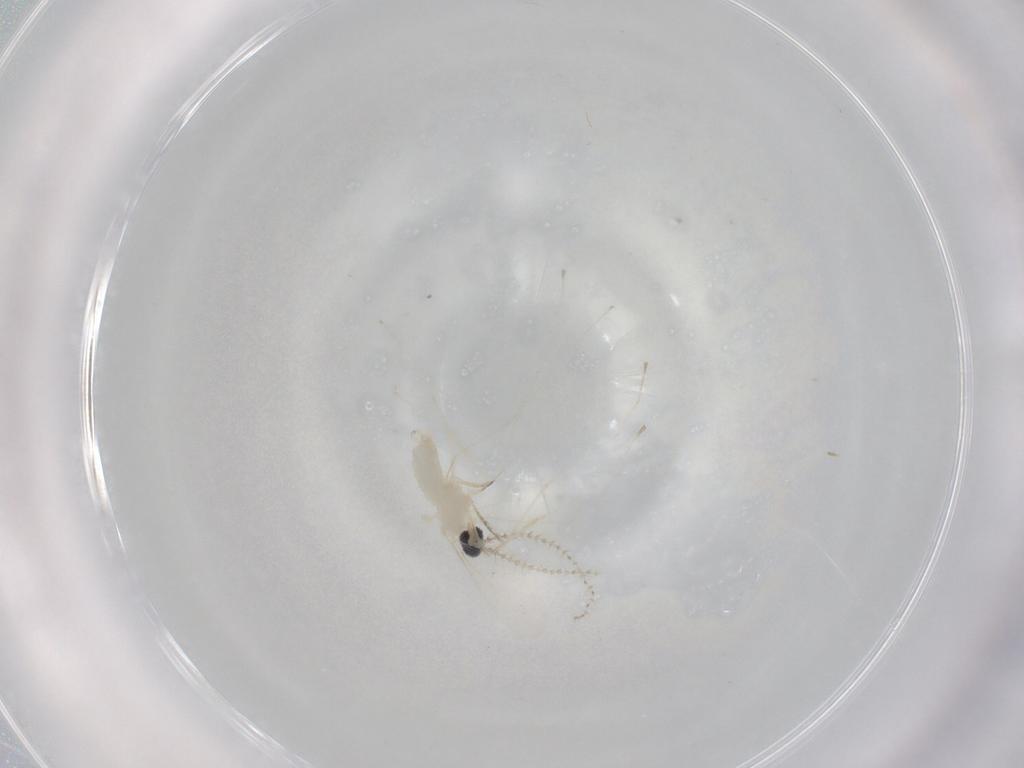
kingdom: Animalia
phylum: Arthropoda
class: Insecta
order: Diptera
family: Cecidomyiidae
